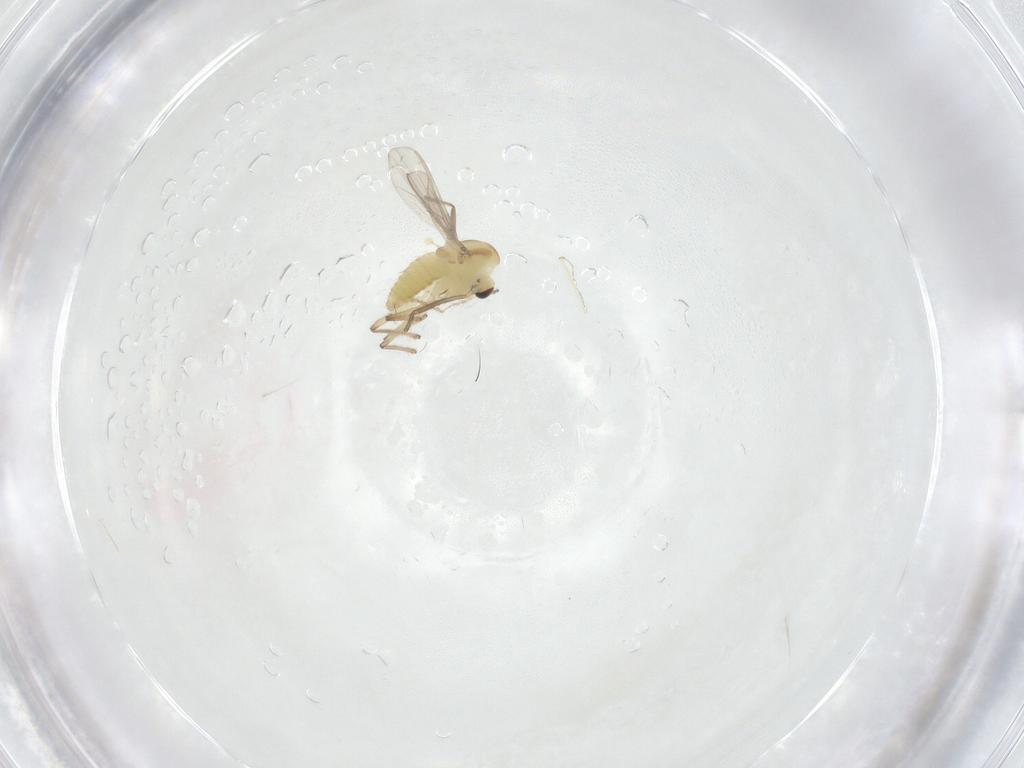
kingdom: Animalia
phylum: Arthropoda
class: Insecta
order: Diptera
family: Chironomidae
